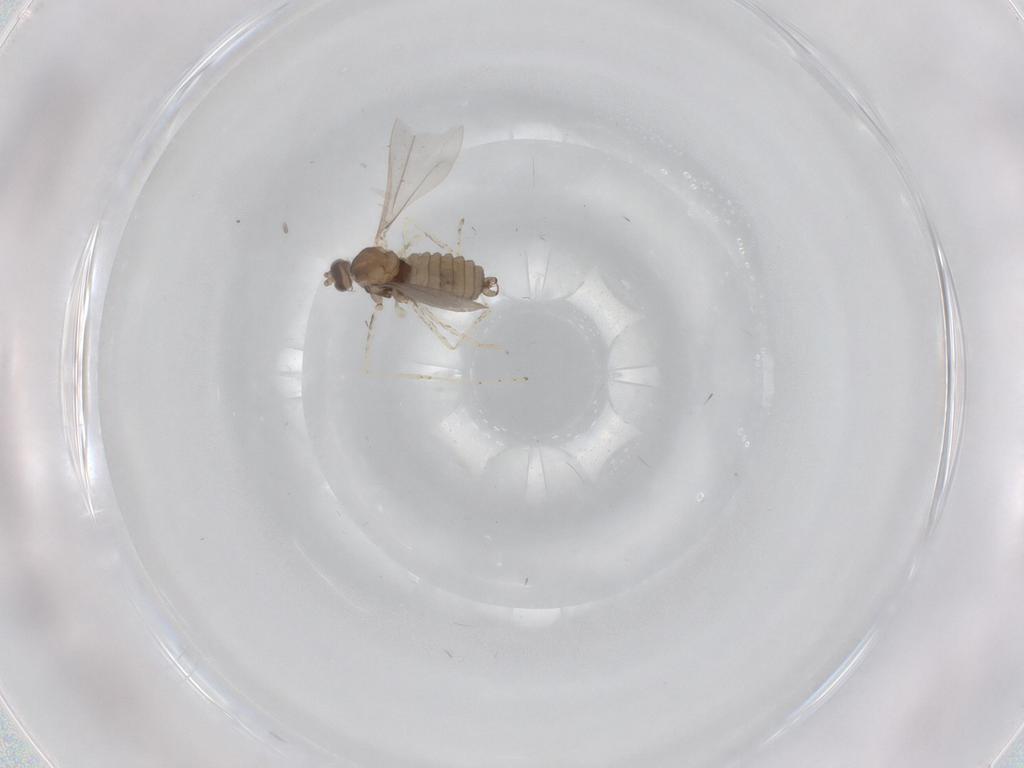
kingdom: Animalia
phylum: Arthropoda
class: Insecta
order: Diptera
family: Cecidomyiidae
